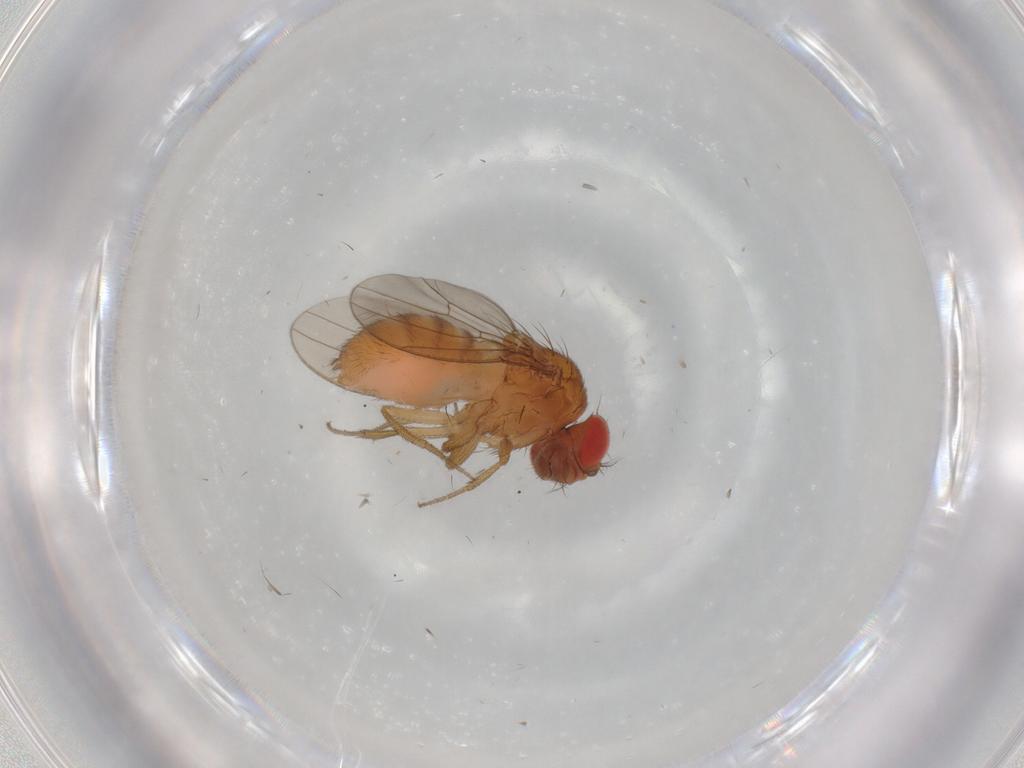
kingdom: Animalia
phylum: Arthropoda
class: Insecta
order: Diptera
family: Drosophilidae
